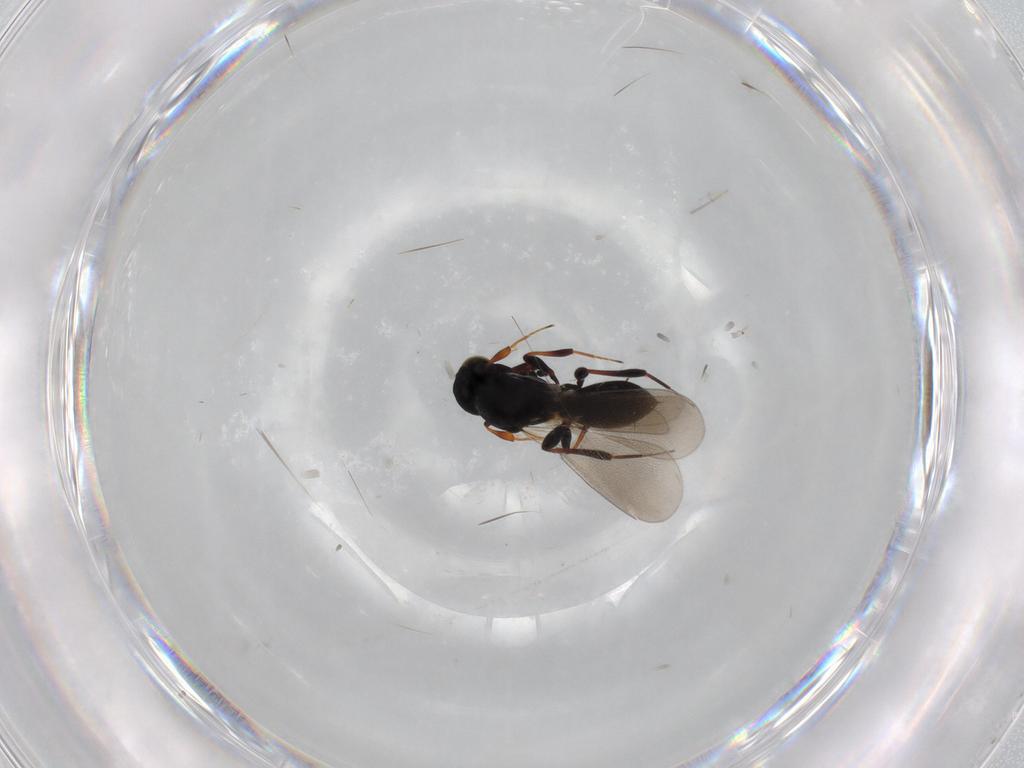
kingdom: Animalia
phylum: Arthropoda
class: Insecta
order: Hymenoptera
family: Platygastridae
